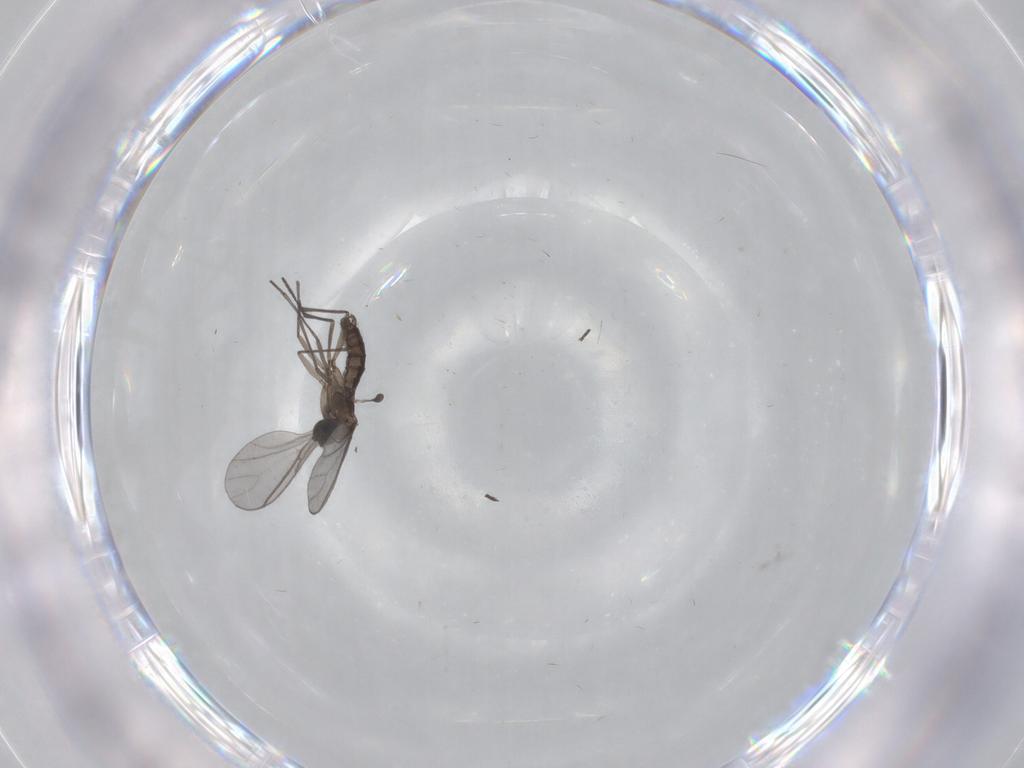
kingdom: Animalia
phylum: Arthropoda
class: Insecta
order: Diptera
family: Sciaridae
